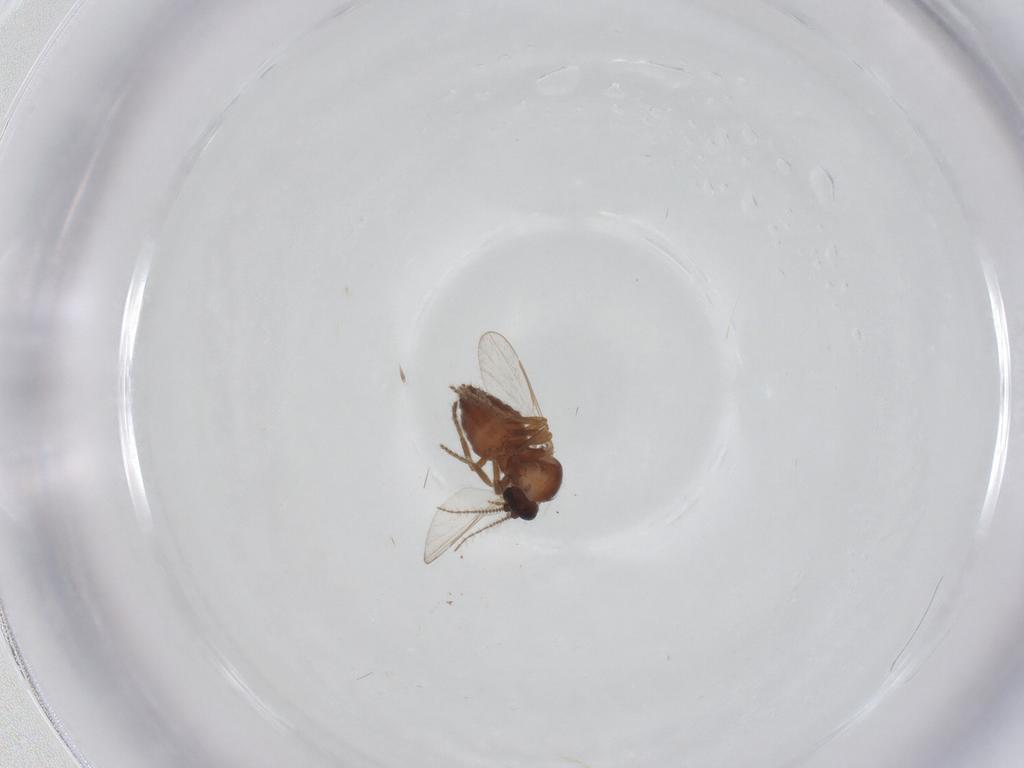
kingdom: Animalia
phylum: Arthropoda
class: Insecta
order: Diptera
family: Ceratopogonidae
